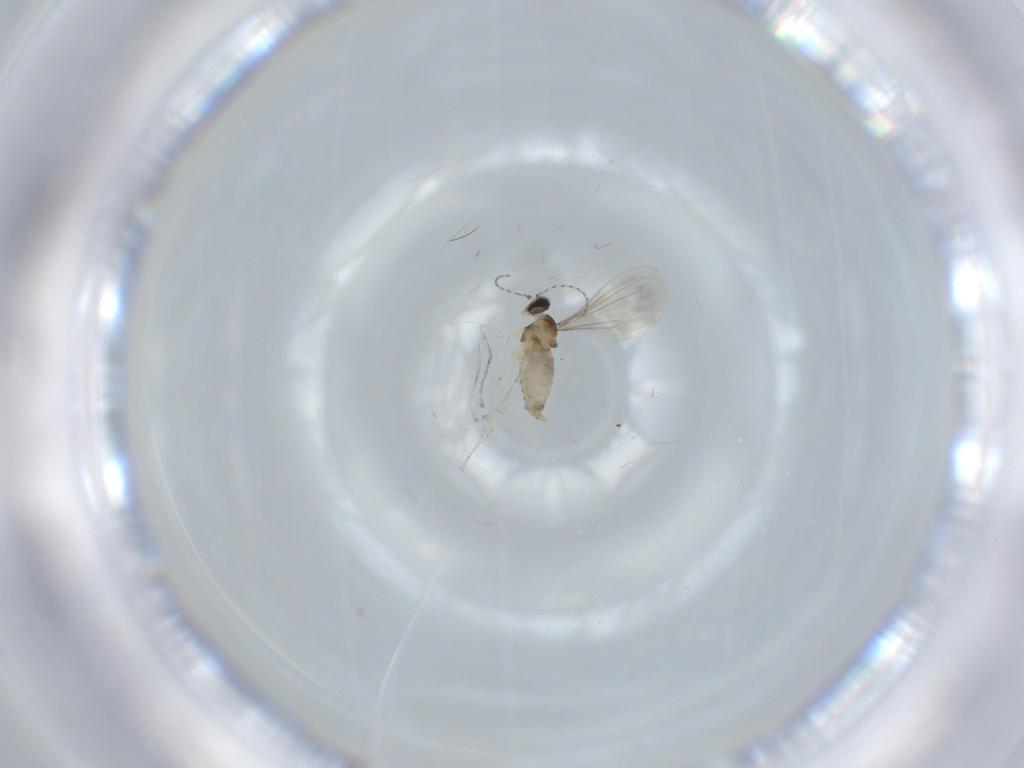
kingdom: Animalia
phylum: Arthropoda
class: Insecta
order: Diptera
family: Cecidomyiidae
